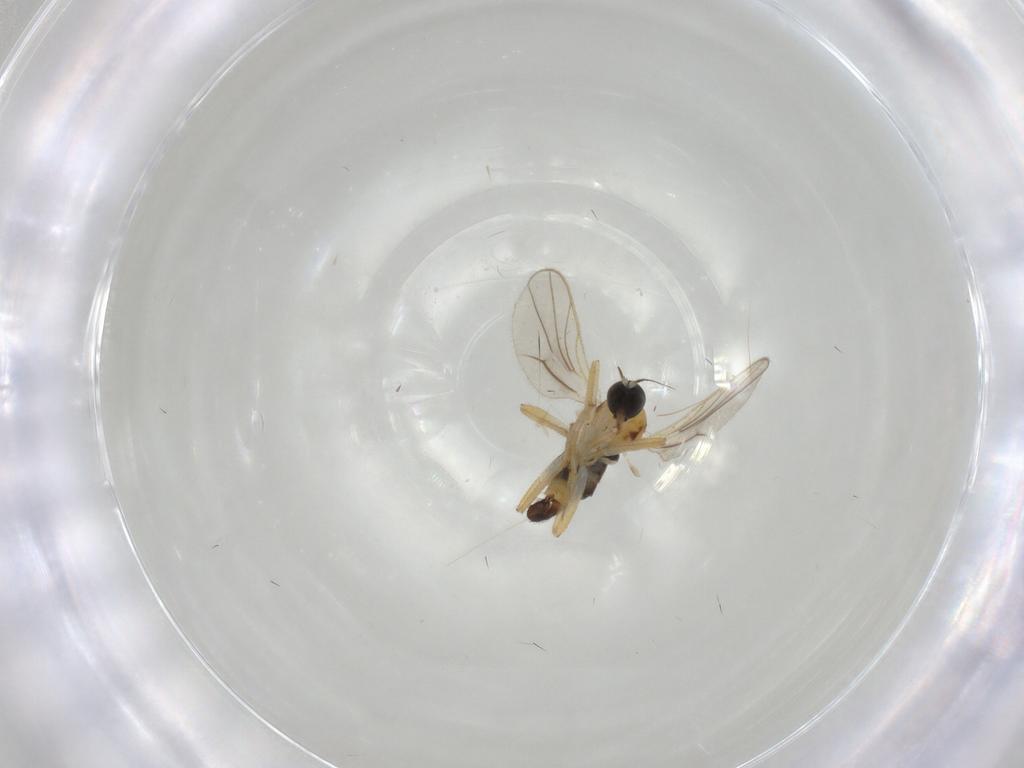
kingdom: Animalia
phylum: Arthropoda
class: Insecta
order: Diptera
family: Hybotidae
